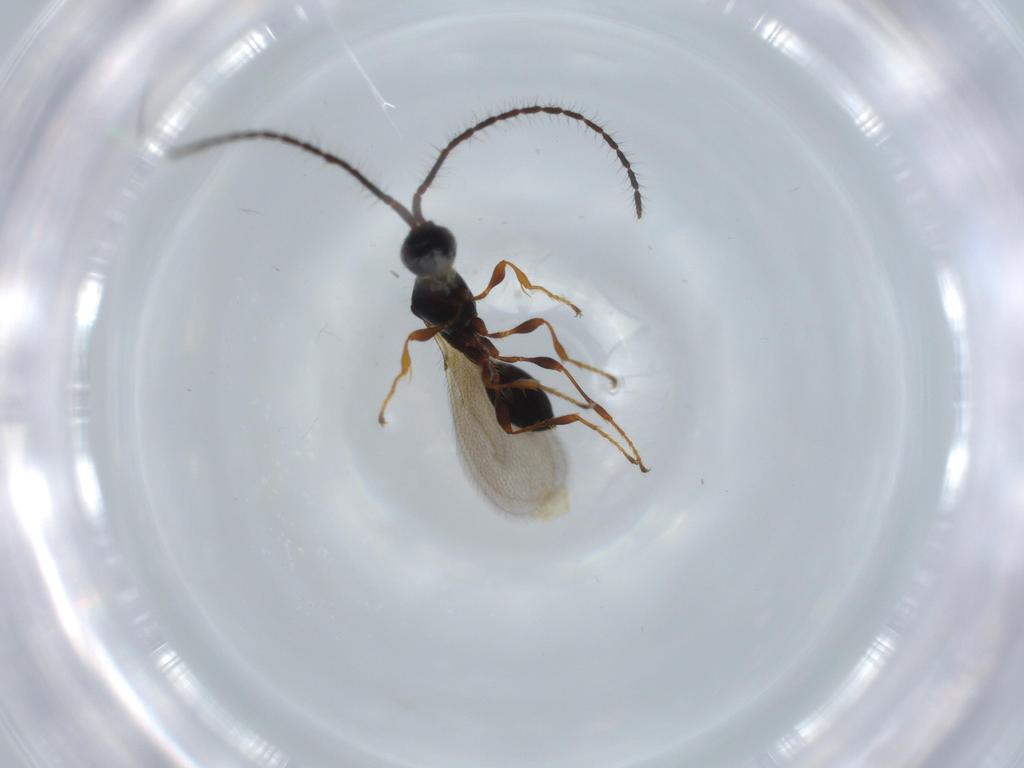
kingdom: Animalia
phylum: Arthropoda
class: Insecta
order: Hymenoptera
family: Diapriidae
